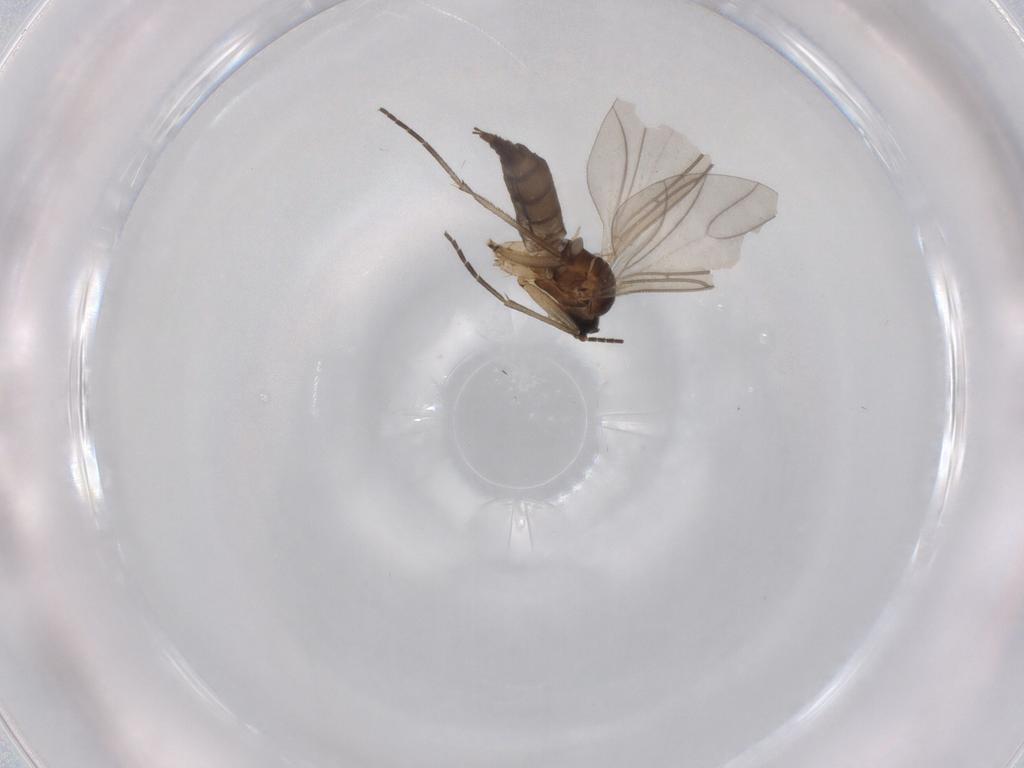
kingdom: Animalia
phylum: Arthropoda
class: Insecta
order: Diptera
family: Sciaridae
